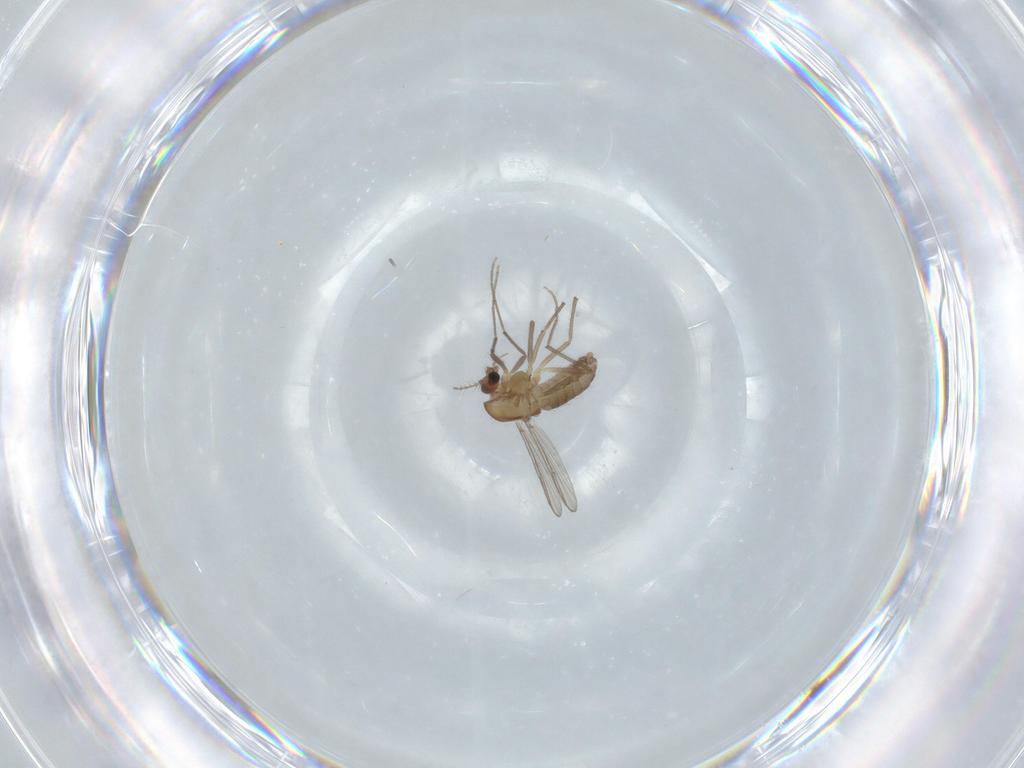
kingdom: Animalia
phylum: Arthropoda
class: Insecta
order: Diptera
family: Chironomidae
